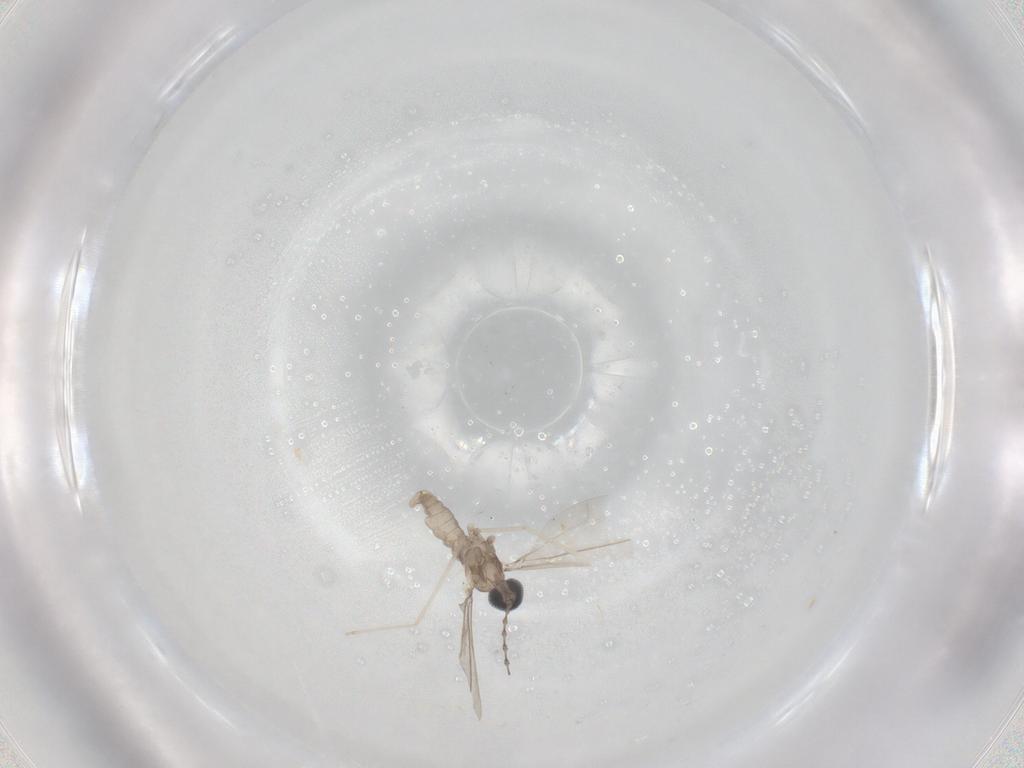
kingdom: Animalia
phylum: Arthropoda
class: Insecta
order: Diptera
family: Cecidomyiidae
